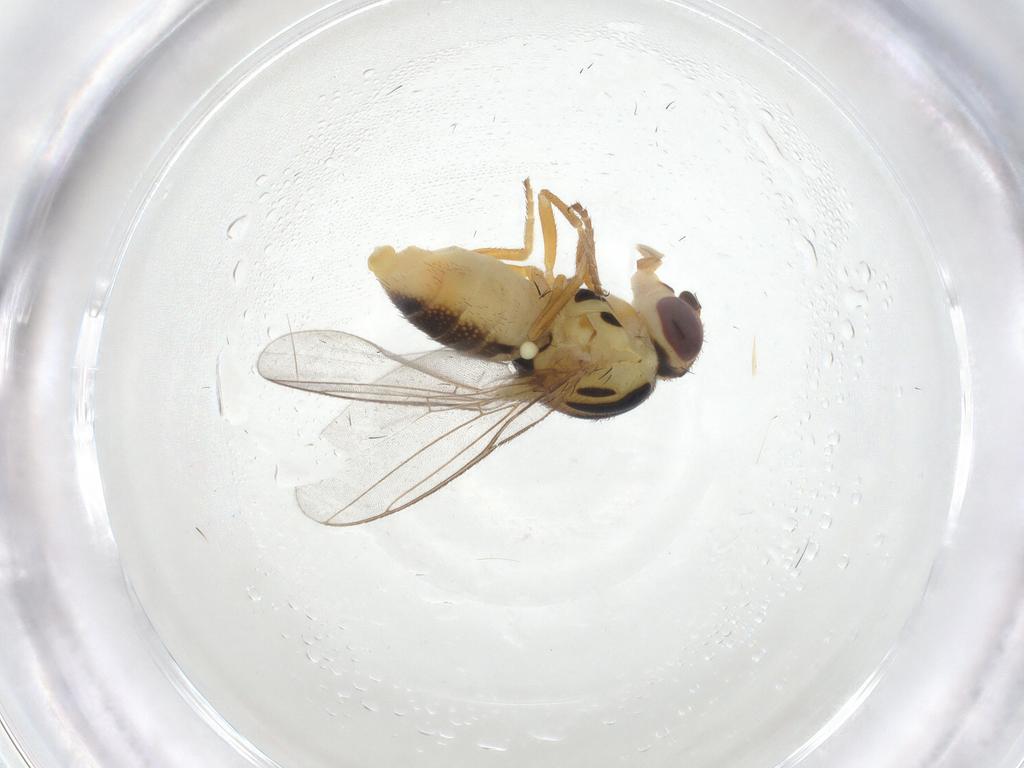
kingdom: Animalia
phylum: Arthropoda
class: Insecta
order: Diptera
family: Chloropidae
